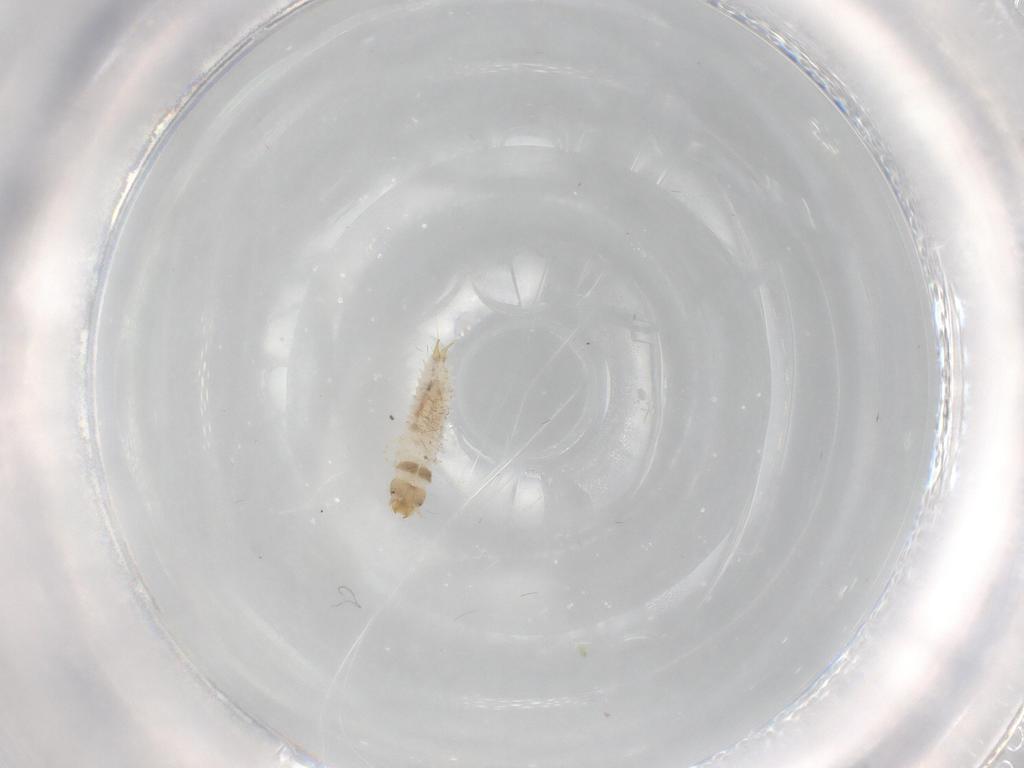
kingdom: Animalia
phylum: Arthropoda
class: Insecta
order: Coleoptera
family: Nitidulidae
